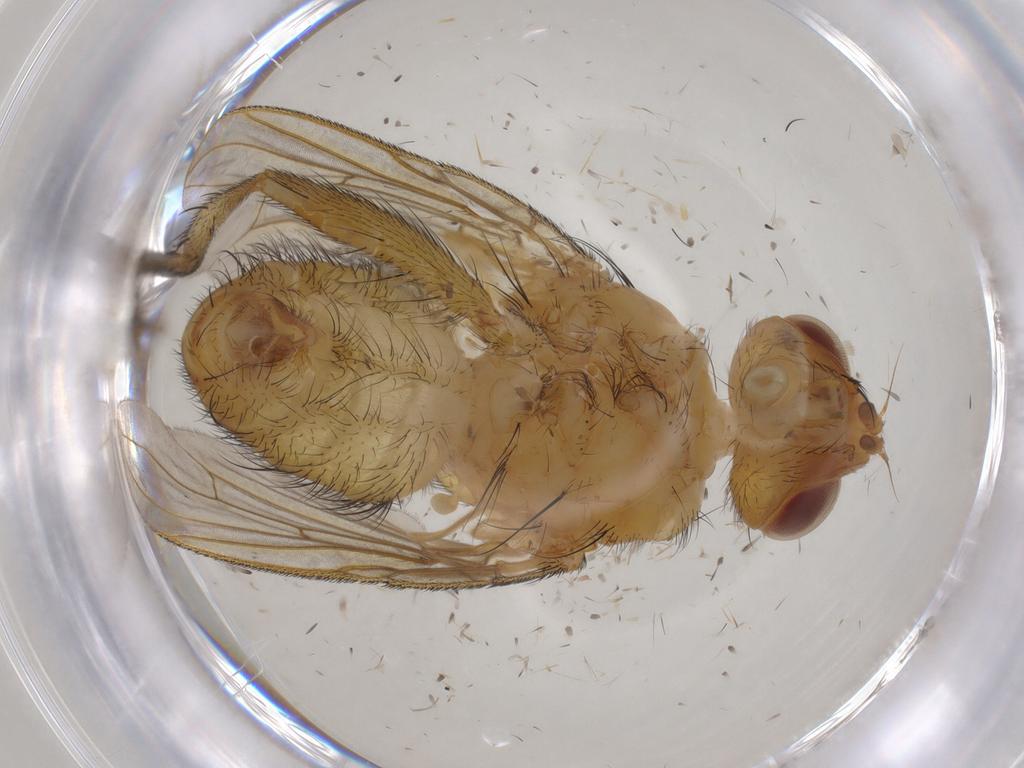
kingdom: Animalia
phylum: Arthropoda
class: Insecta
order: Diptera
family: Tachinidae
